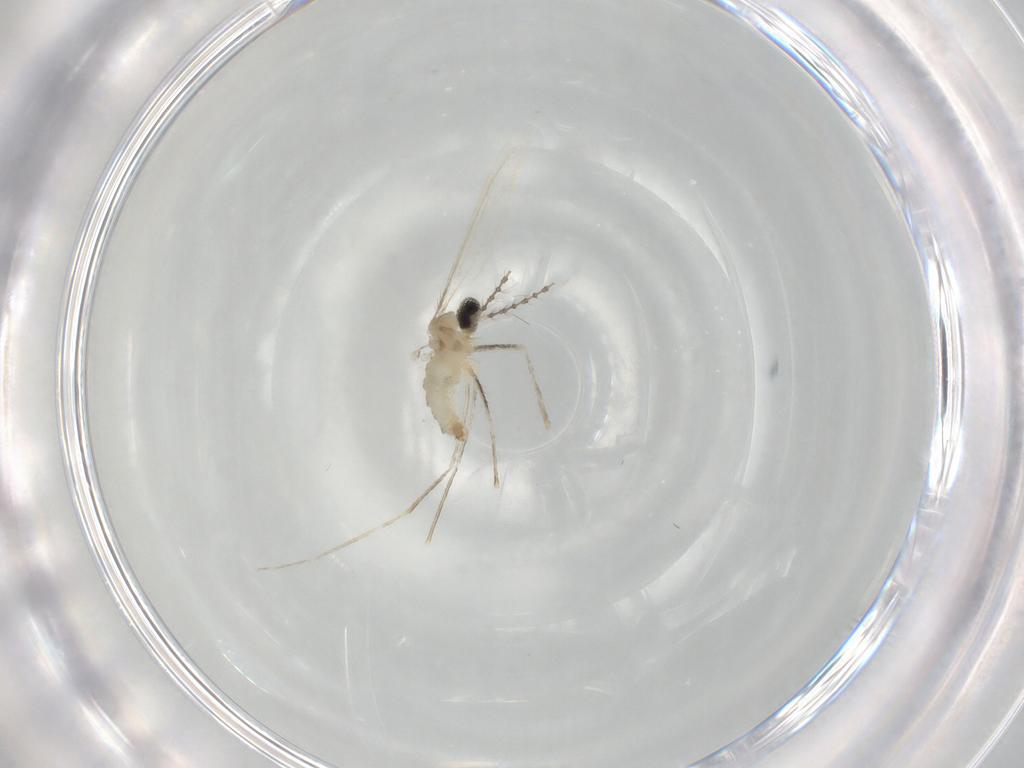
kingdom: Animalia
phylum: Arthropoda
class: Insecta
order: Diptera
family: Cecidomyiidae
